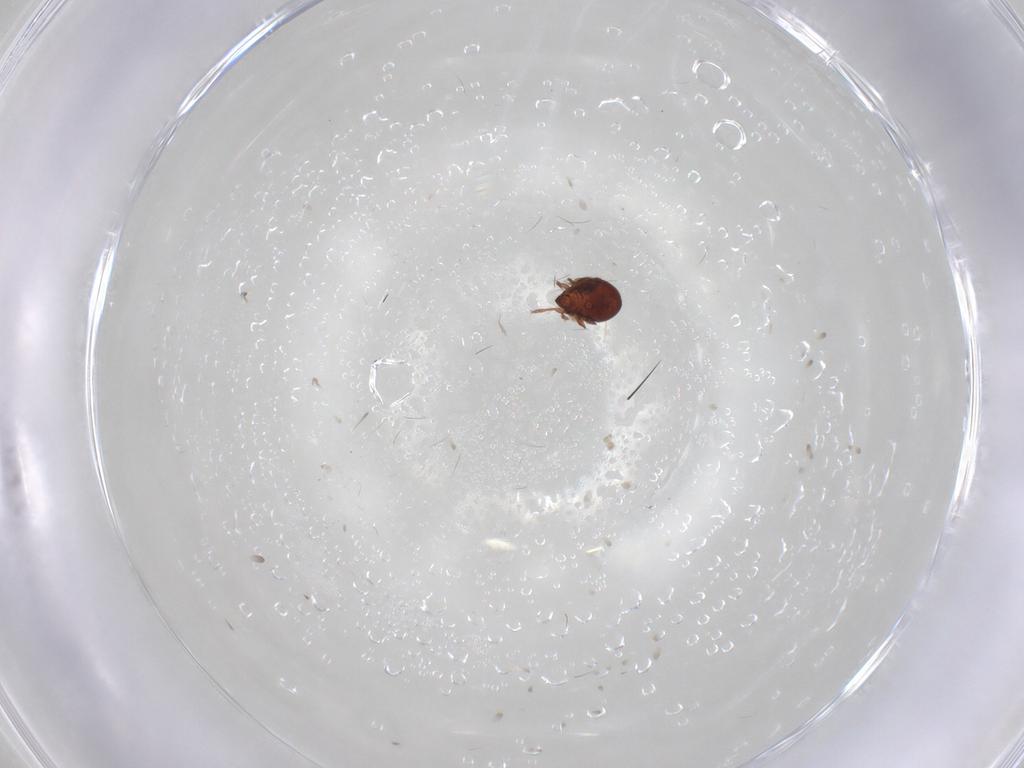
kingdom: Animalia
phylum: Arthropoda
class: Arachnida
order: Sarcoptiformes
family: Humerobatidae
